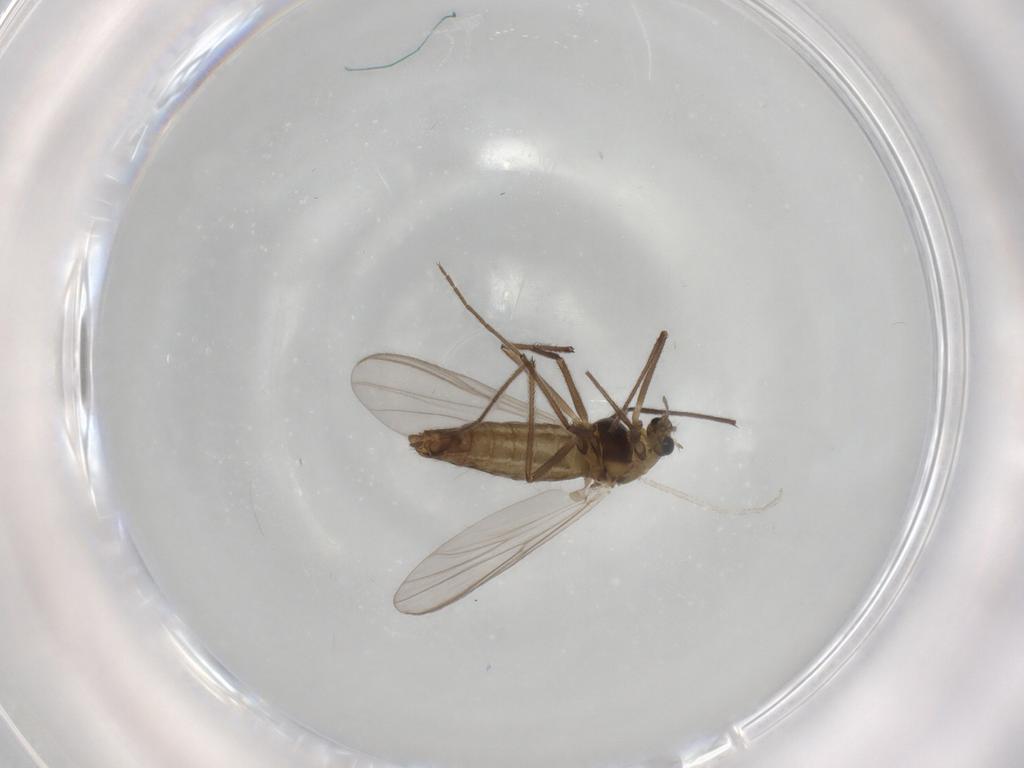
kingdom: Animalia
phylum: Arthropoda
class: Insecta
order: Diptera
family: Chironomidae
